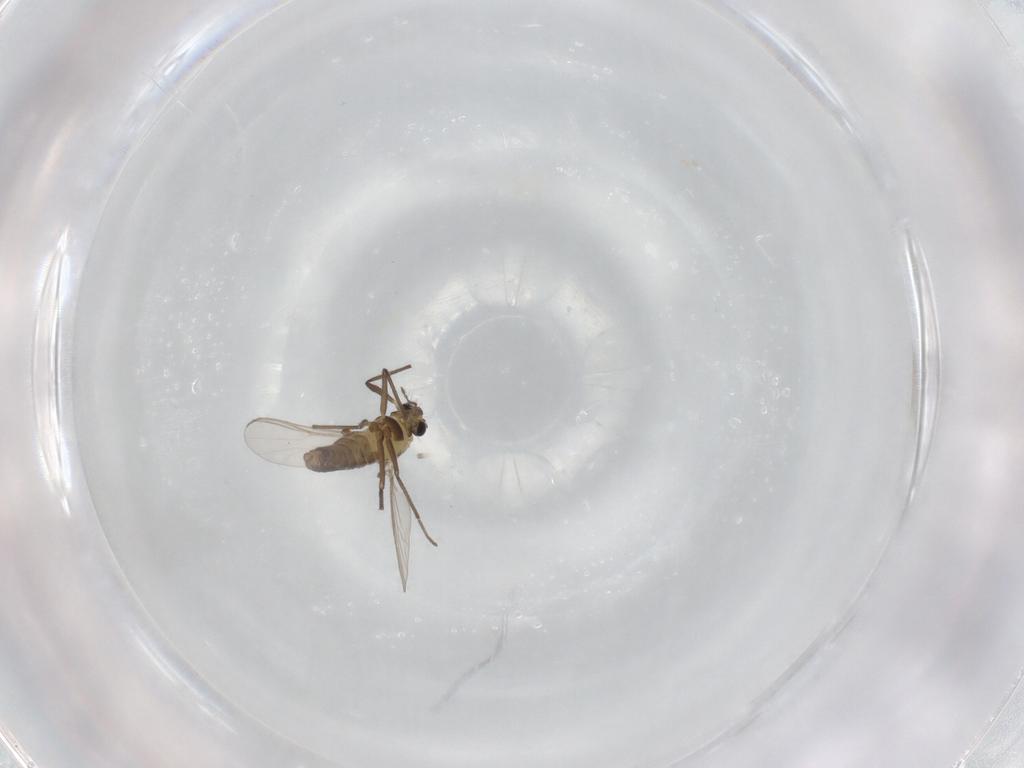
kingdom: Animalia
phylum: Arthropoda
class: Insecta
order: Diptera
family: Chironomidae
